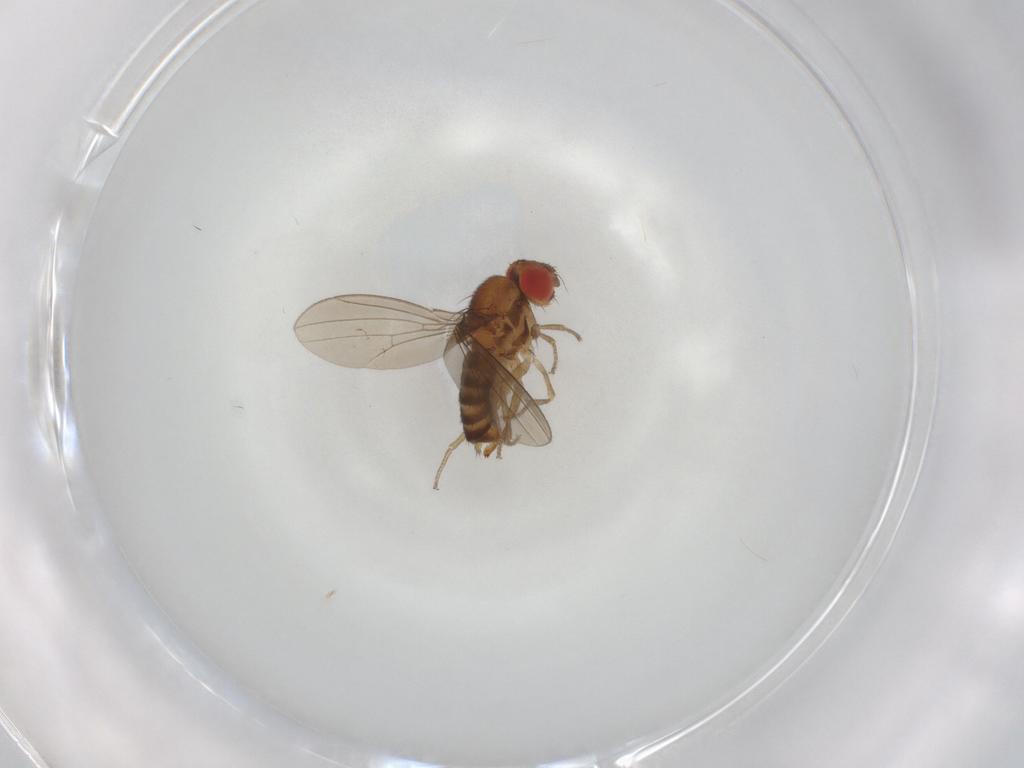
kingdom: Animalia
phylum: Arthropoda
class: Insecta
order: Diptera
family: Ephydridae
